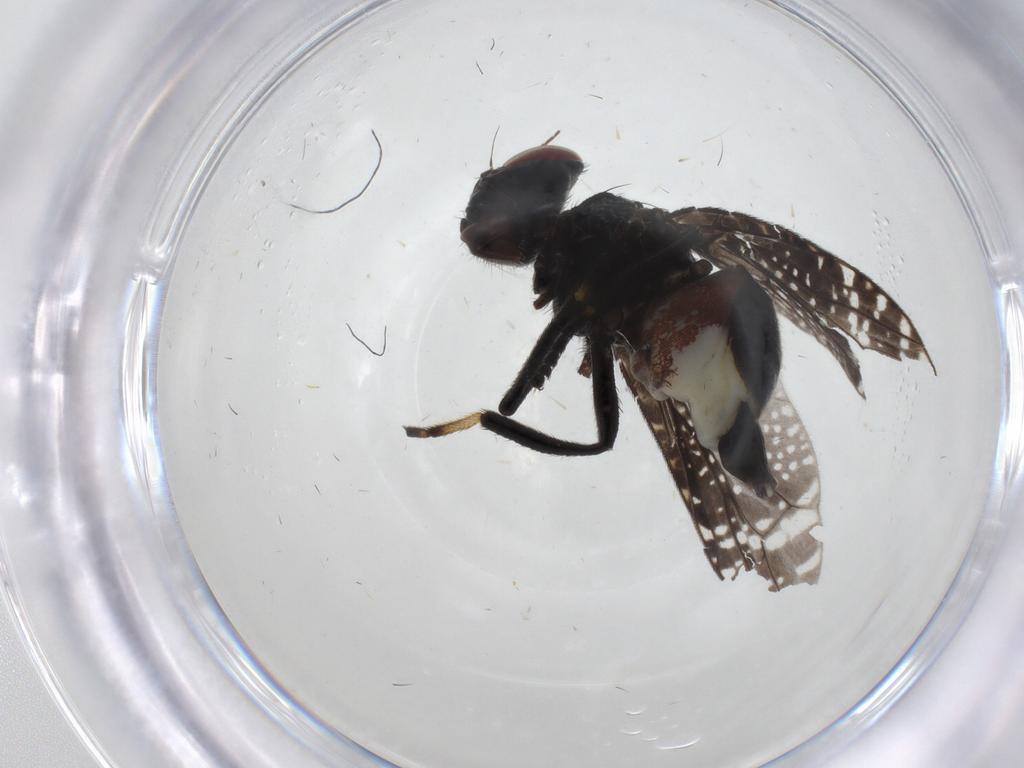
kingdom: Animalia
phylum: Arthropoda
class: Insecta
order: Diptera
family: Platystomatidae
